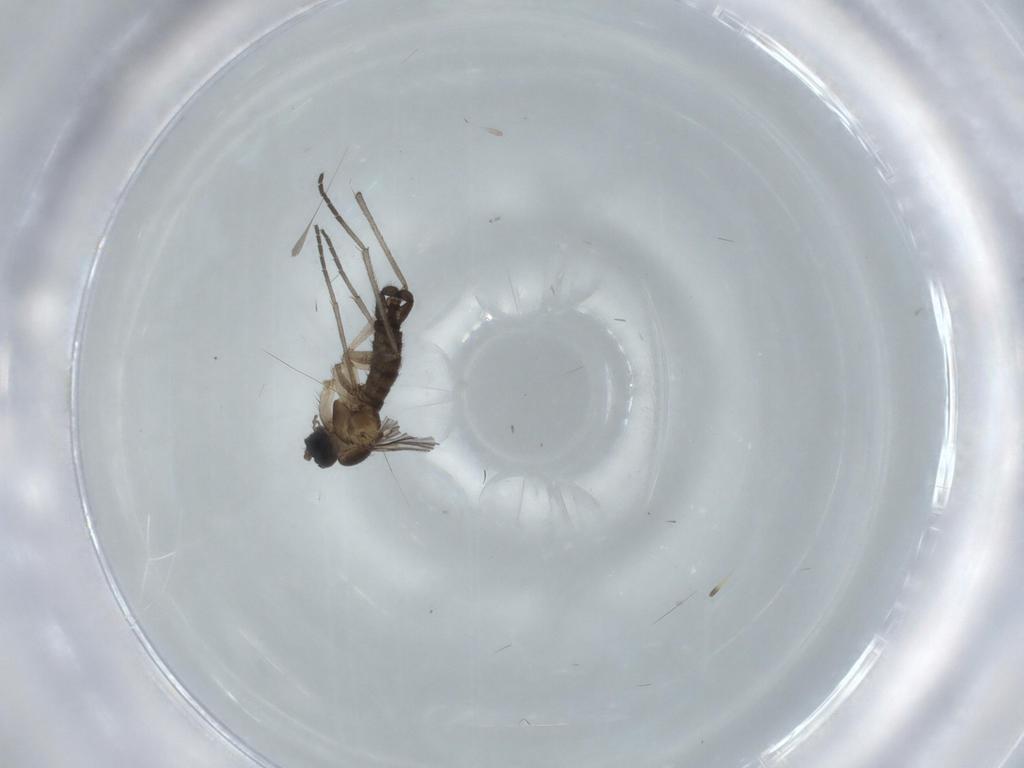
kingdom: Animalia
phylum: Arthropoda
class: Insecta
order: Diptera
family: Sciaridae
